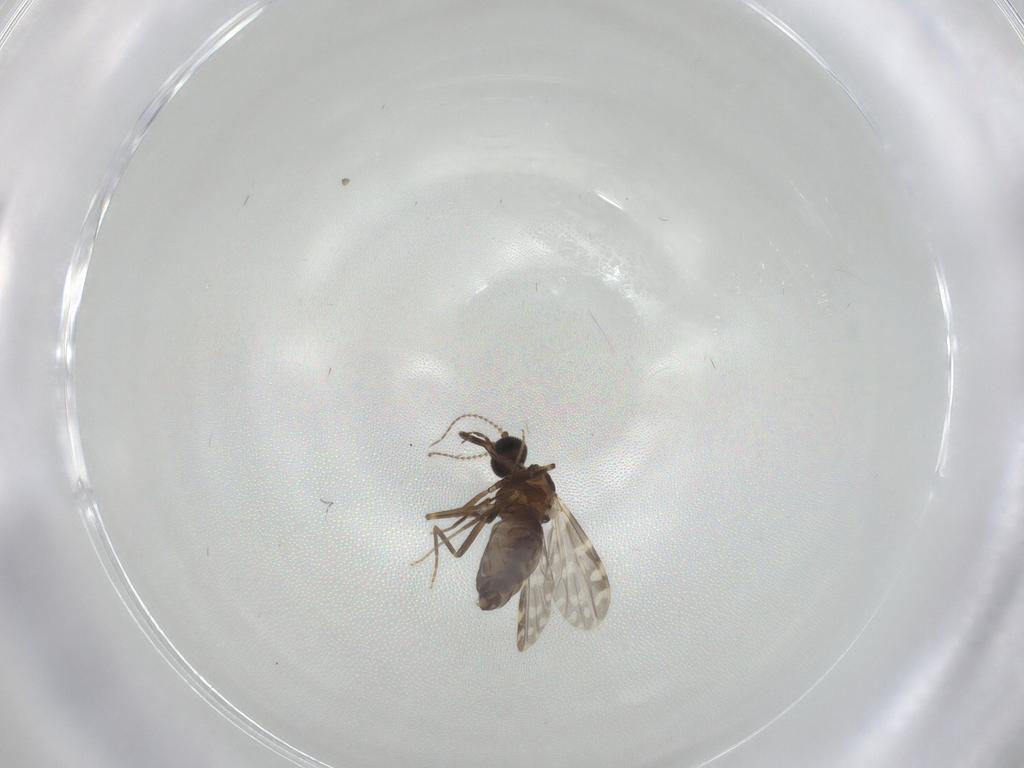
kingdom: Animalia
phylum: Arthropoda
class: Insecta
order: Diptera
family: Ceratopogonidae
